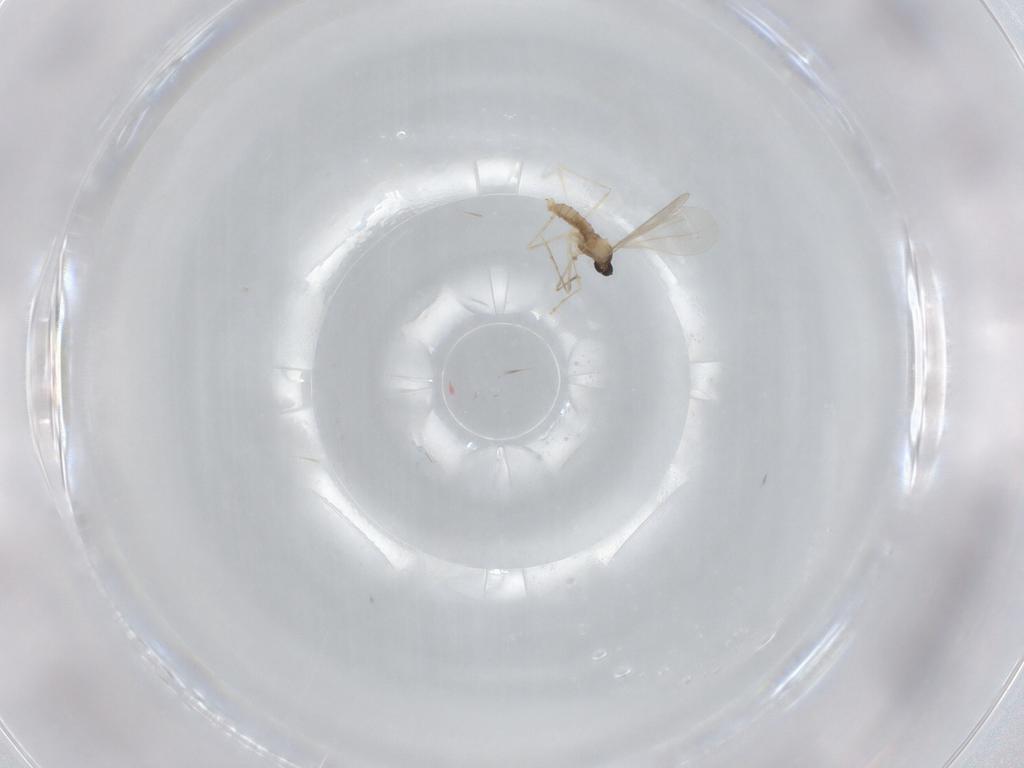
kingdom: Animalia
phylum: Arthropoda
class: Insecta
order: Diptera
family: Cecidomyiidae
